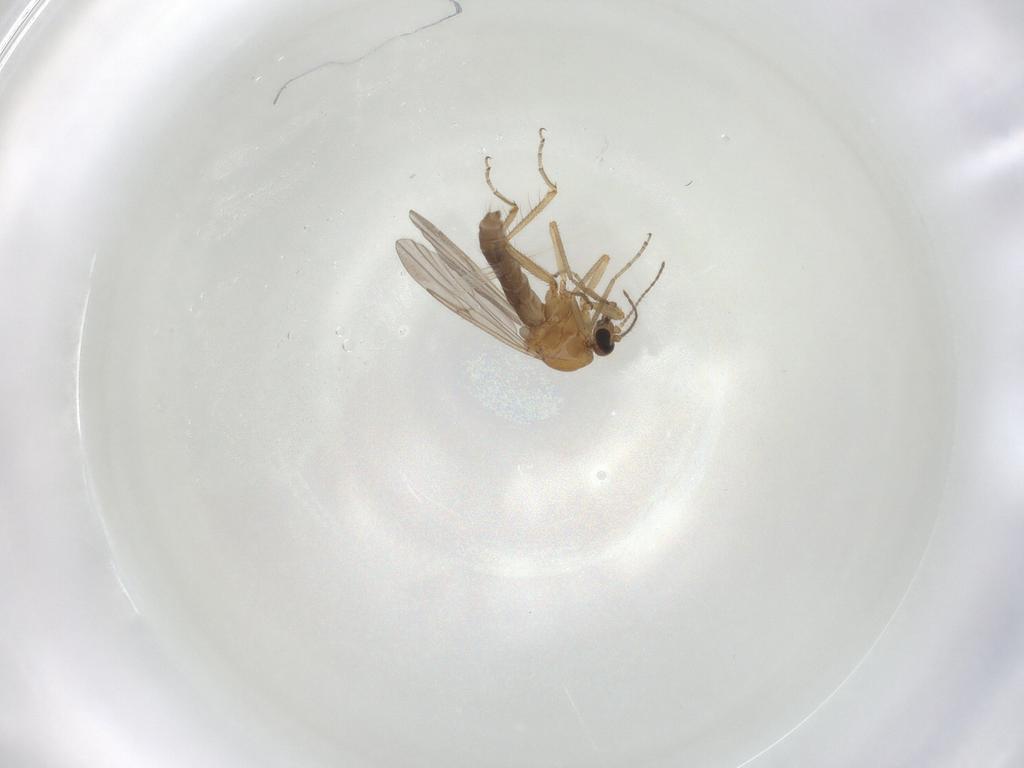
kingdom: Animalia
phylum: Arthropoda
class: Insecta
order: Diptera
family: Ceratopogonidae
